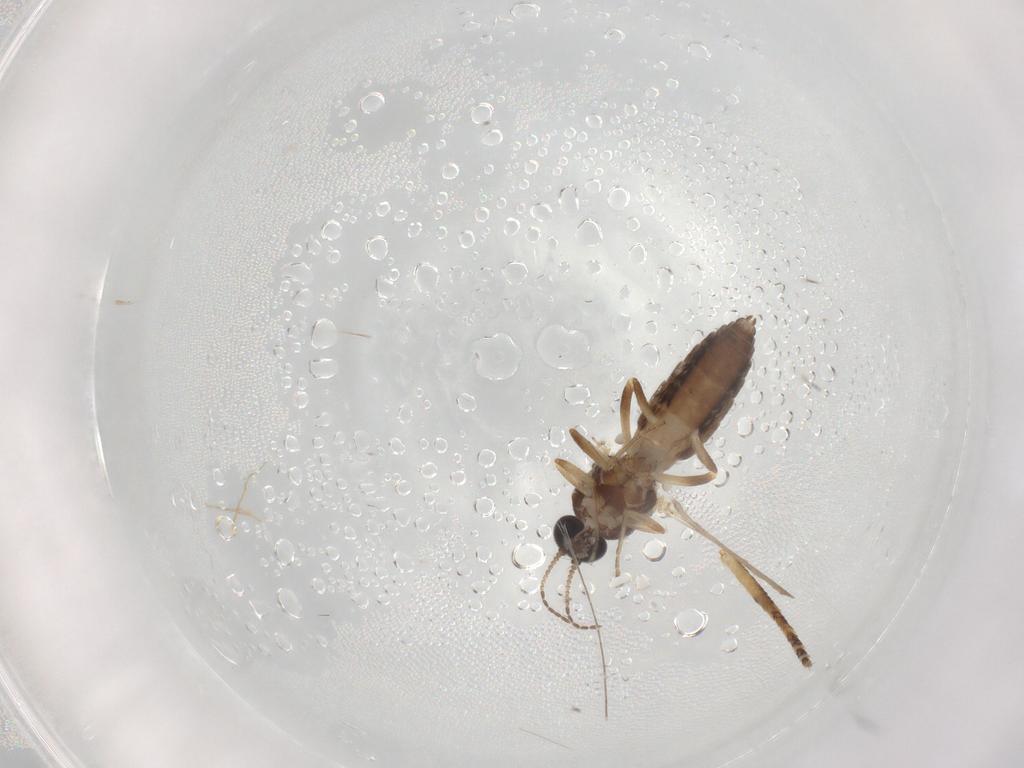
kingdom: Animalia
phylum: Arthropoda
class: Insecta
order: Diptera
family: Ceratopogonidae
